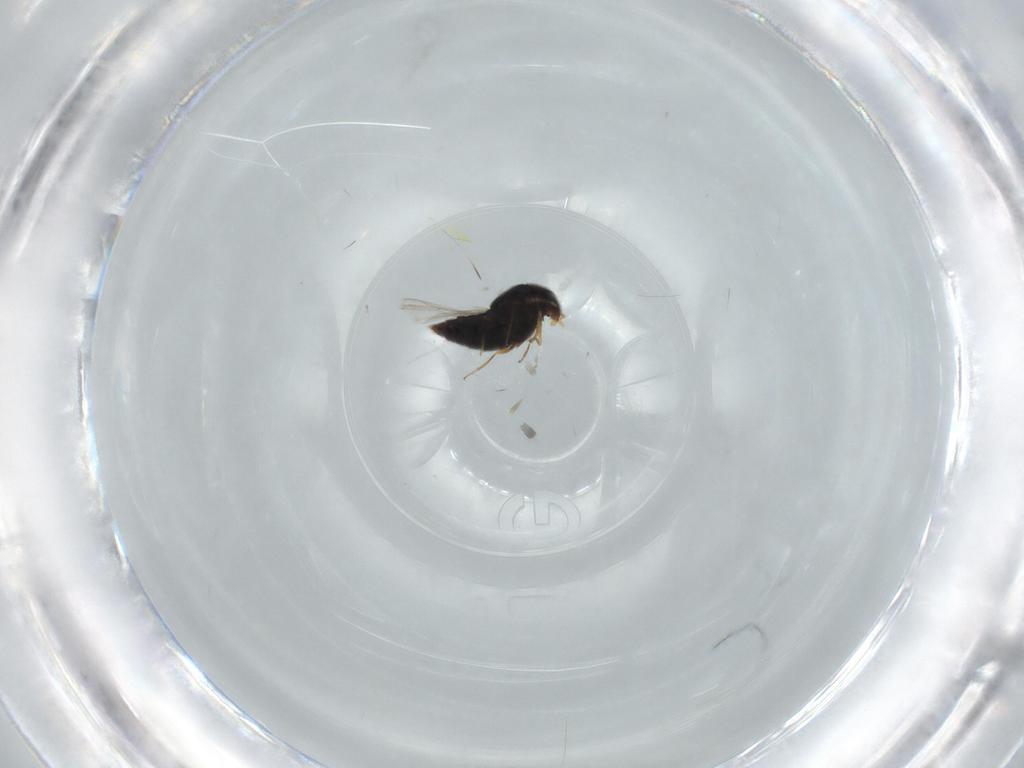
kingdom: Animalia
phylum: Arthropoda
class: Insecta
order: Coleoptera
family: Staphylinidae
